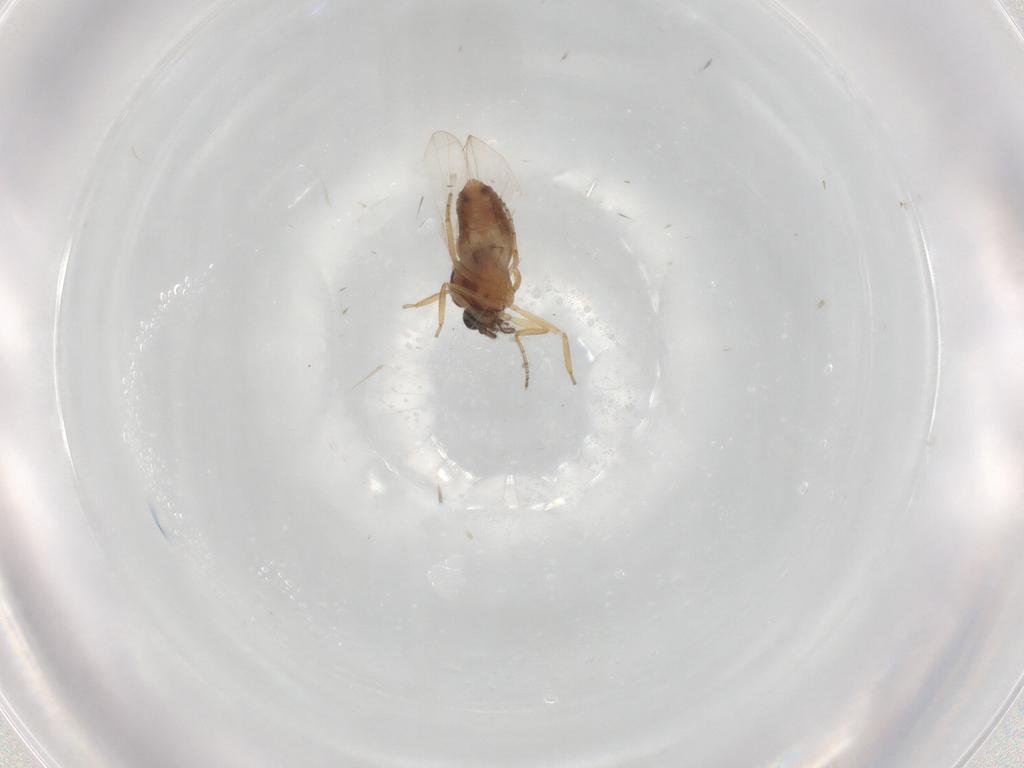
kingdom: Animalia
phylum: Arthropoda
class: Insecta
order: Diptera
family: Ceratopogonidae
